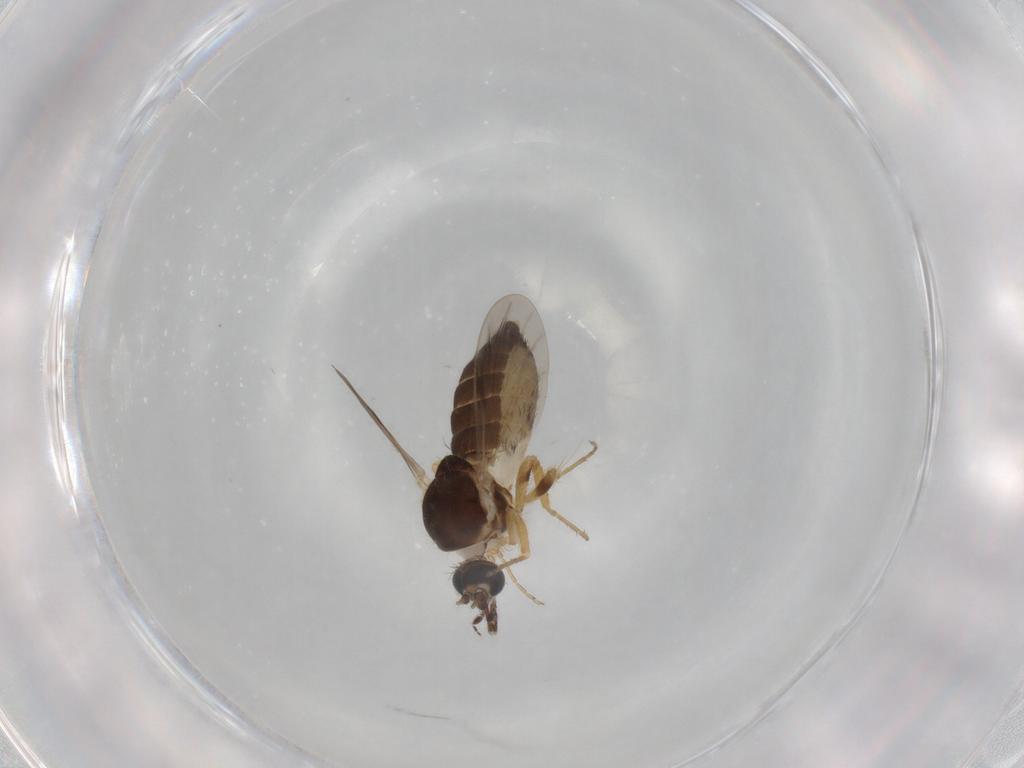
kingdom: Animalia
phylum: Arthropoda
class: Insecta
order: Diptera
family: Ceratopogonidae
